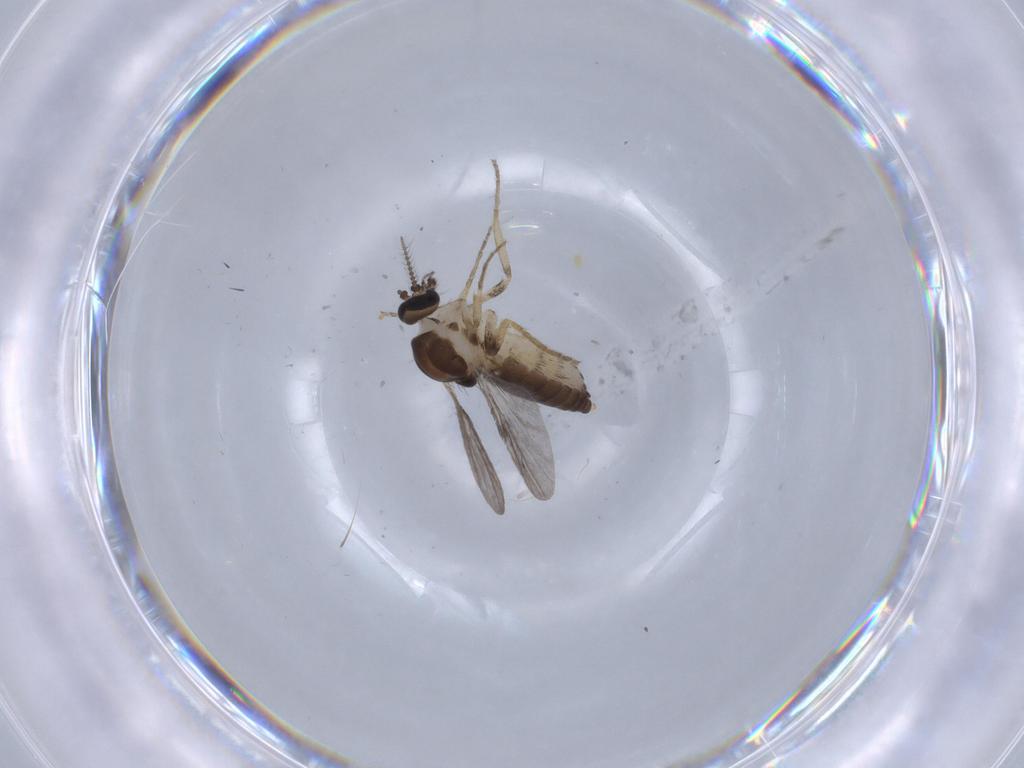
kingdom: Animalia
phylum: Arthropoda
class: Insecta
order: Diptera
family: Ceratopogonidae
